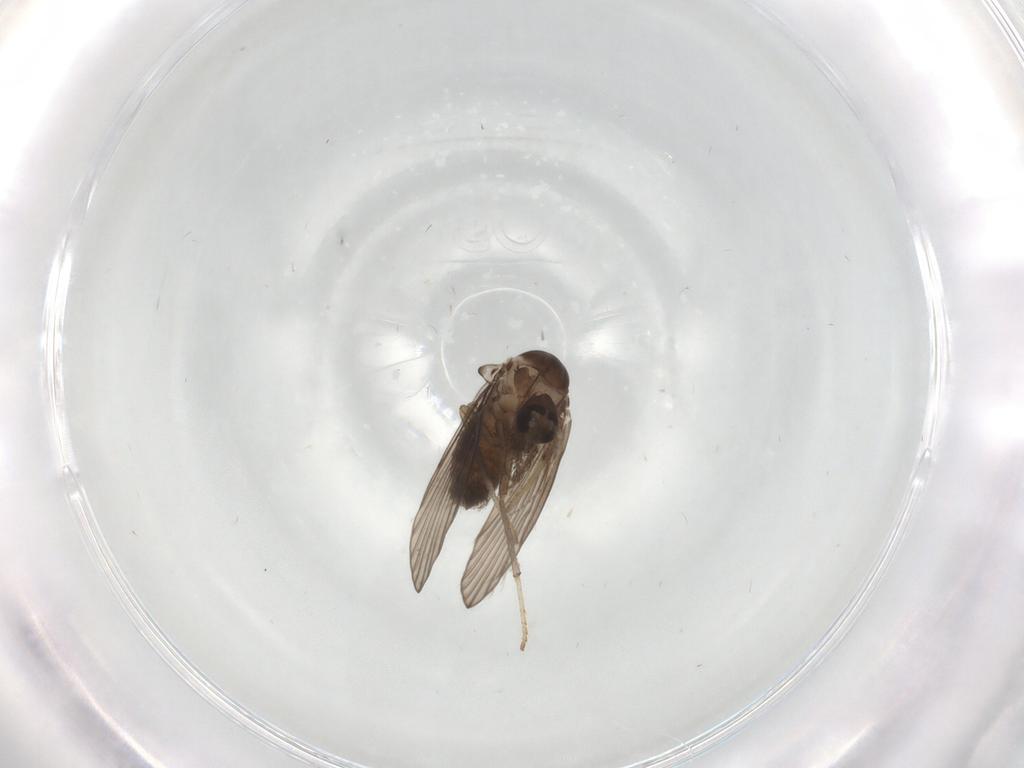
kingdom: Animalia
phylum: Arthropoda
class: Insecta
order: Diptera
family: Psychodidae
